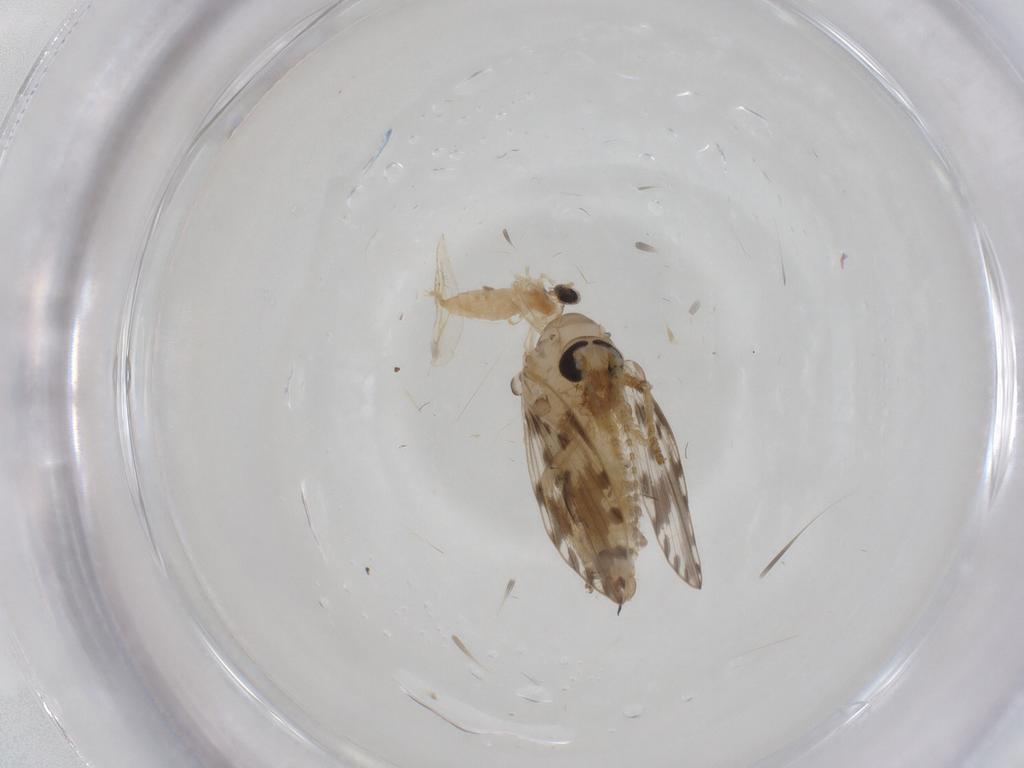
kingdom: Animalia
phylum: Arthropoda
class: Insecta
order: Diptera
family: Psychodidae
